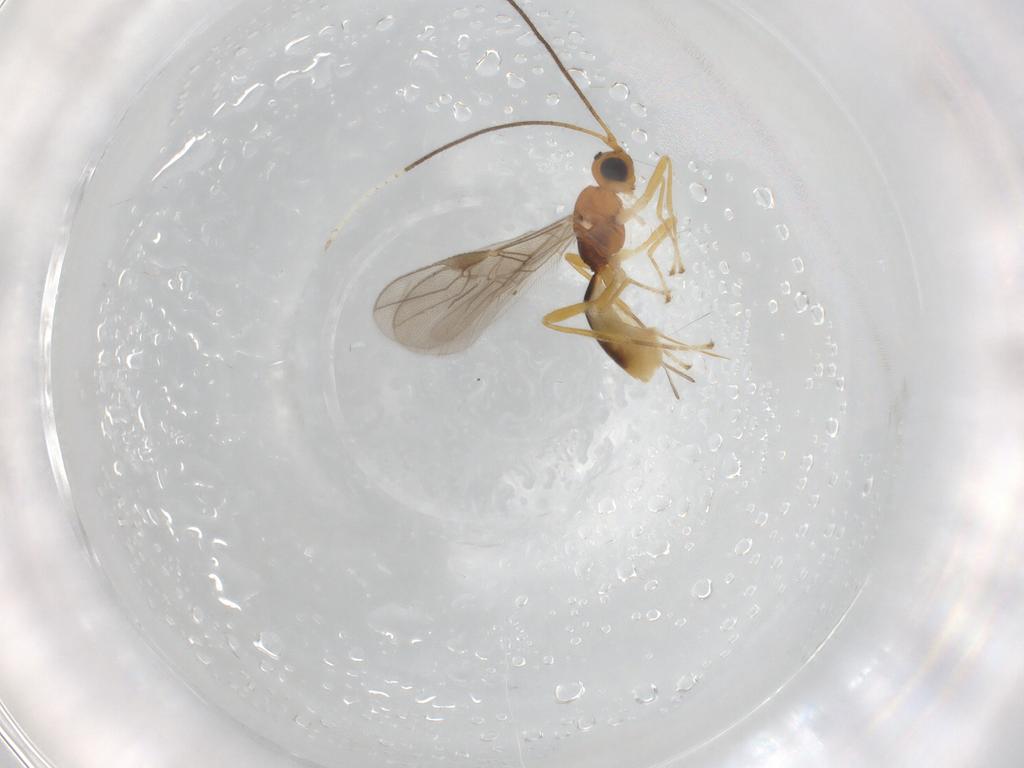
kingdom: Animalia
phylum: Arthropoda
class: Insecta
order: Hymenoptera
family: Braconidae
